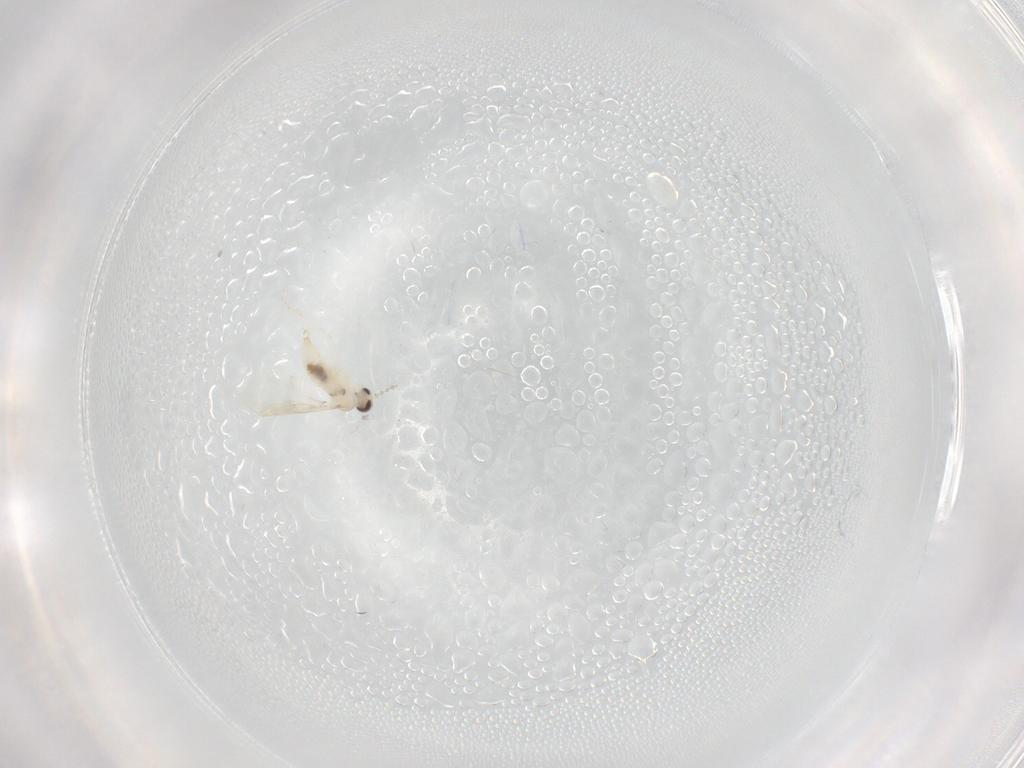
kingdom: Animalia
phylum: Arthropoda
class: Insecta
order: Diptera
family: Cecidomyiidae
